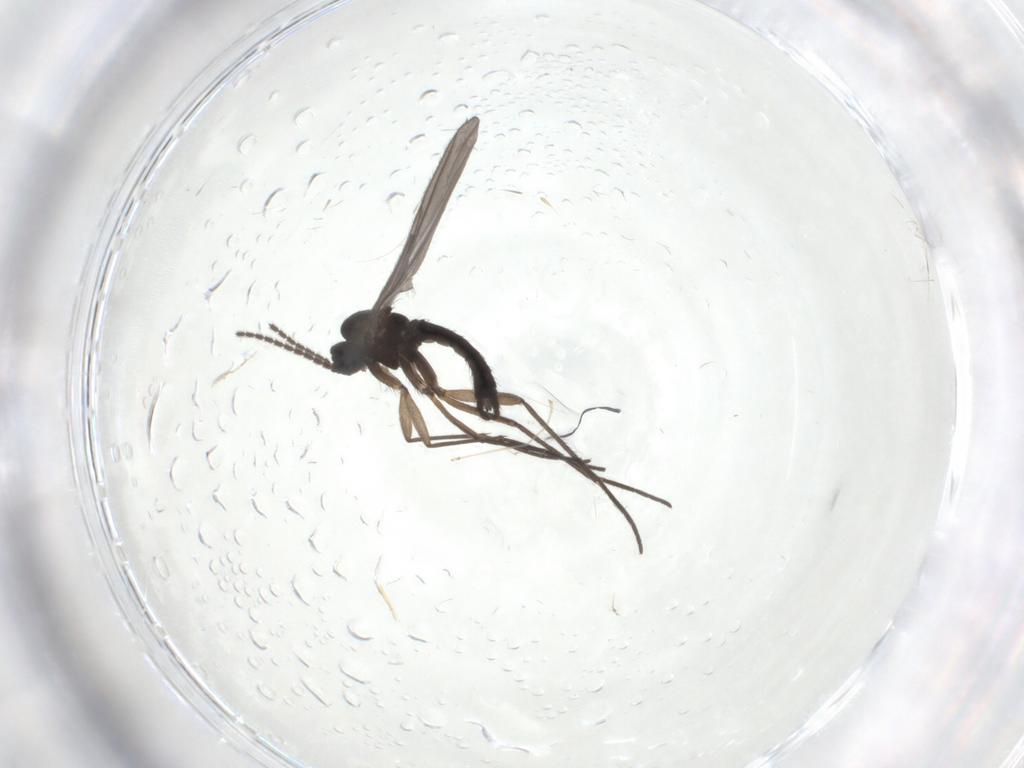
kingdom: Animalia
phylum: Arthropoda
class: Insecta
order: Diptera
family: Sciaridae
